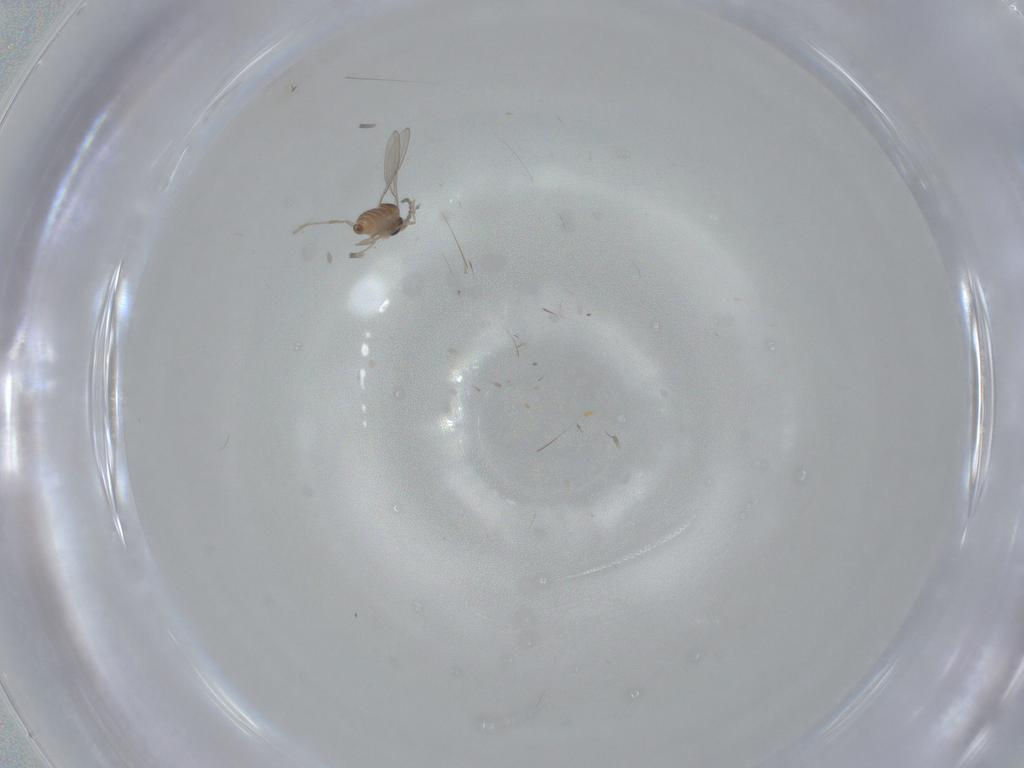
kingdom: Animalia
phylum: Arthropoda
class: Insecta
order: Diptera
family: Cecidomyiidae
